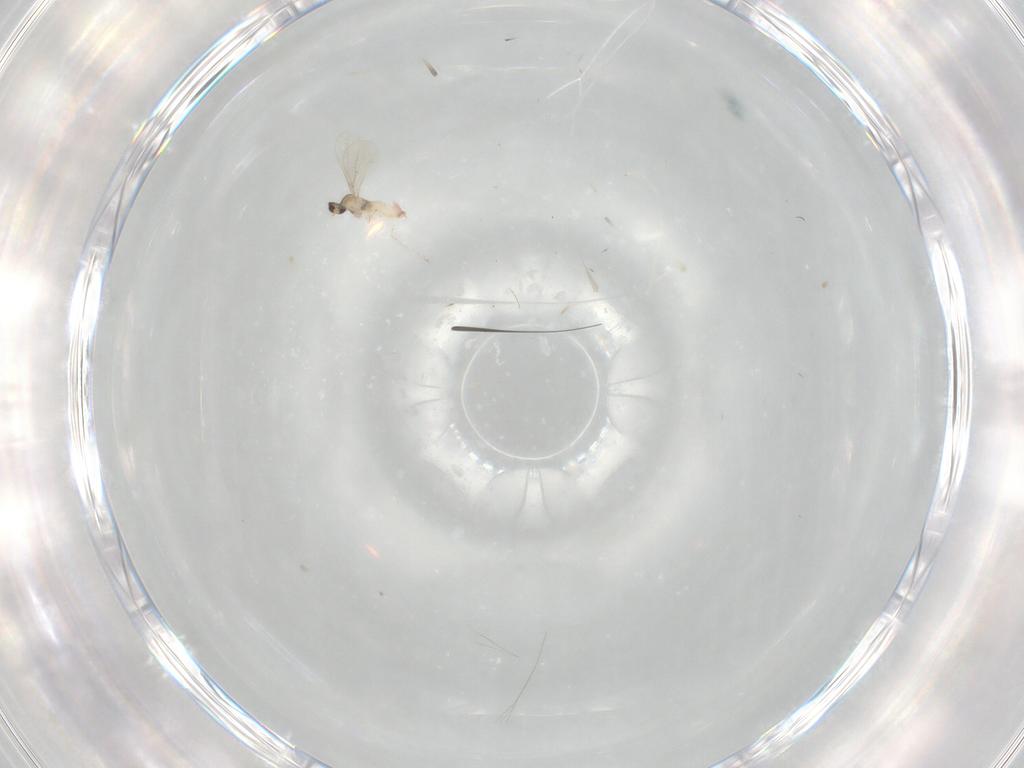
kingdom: Animalia
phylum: Arthropoda
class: Insecta
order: Diptera
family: Cecidomyiidae
